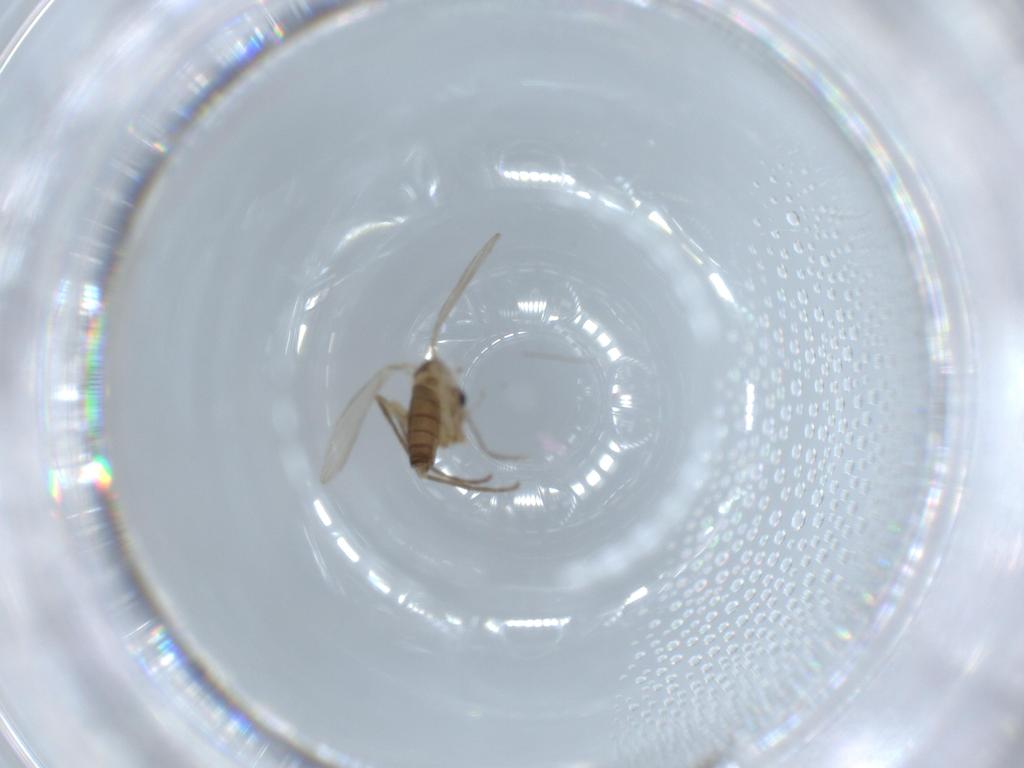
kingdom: Animalia
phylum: Arthropoda
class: Insecta
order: Diptera
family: Psychodidae
